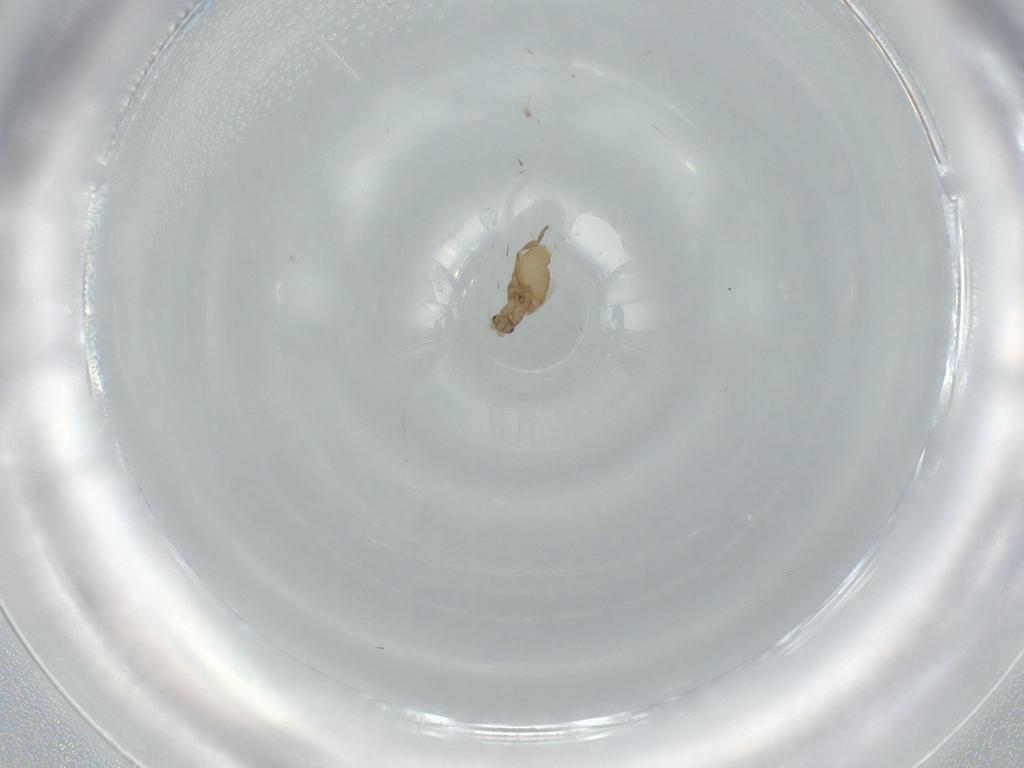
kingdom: Animalia
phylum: Arthropoda
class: Insecta
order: Diptera
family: Phoridae
